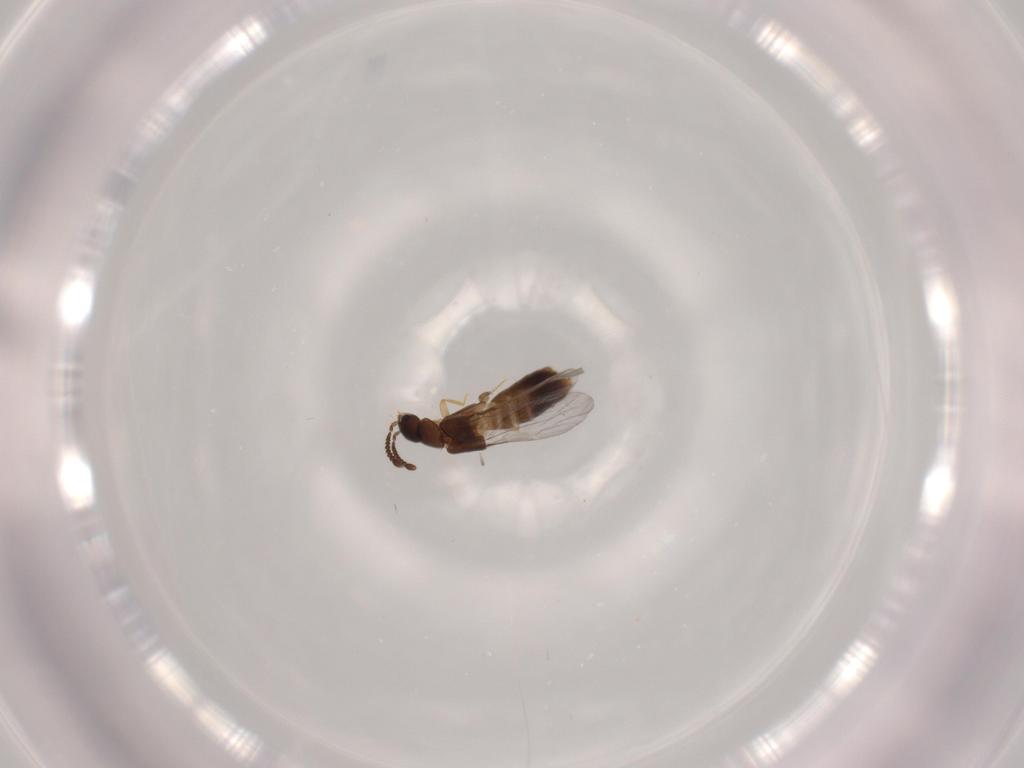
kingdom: Animalia
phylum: Arthropoda
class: Insecta
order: Coleoptera
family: Staphylinidae
